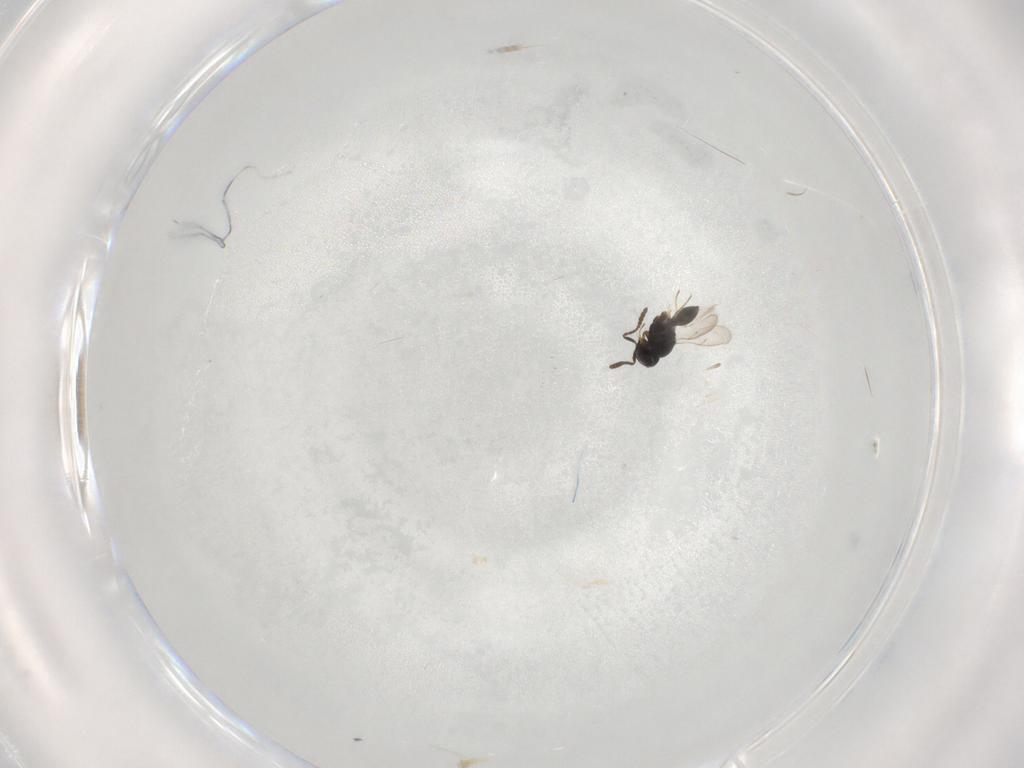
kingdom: Animalia
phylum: Arthropoda
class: Insecta
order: Hymenoptera
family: Scelionidae
